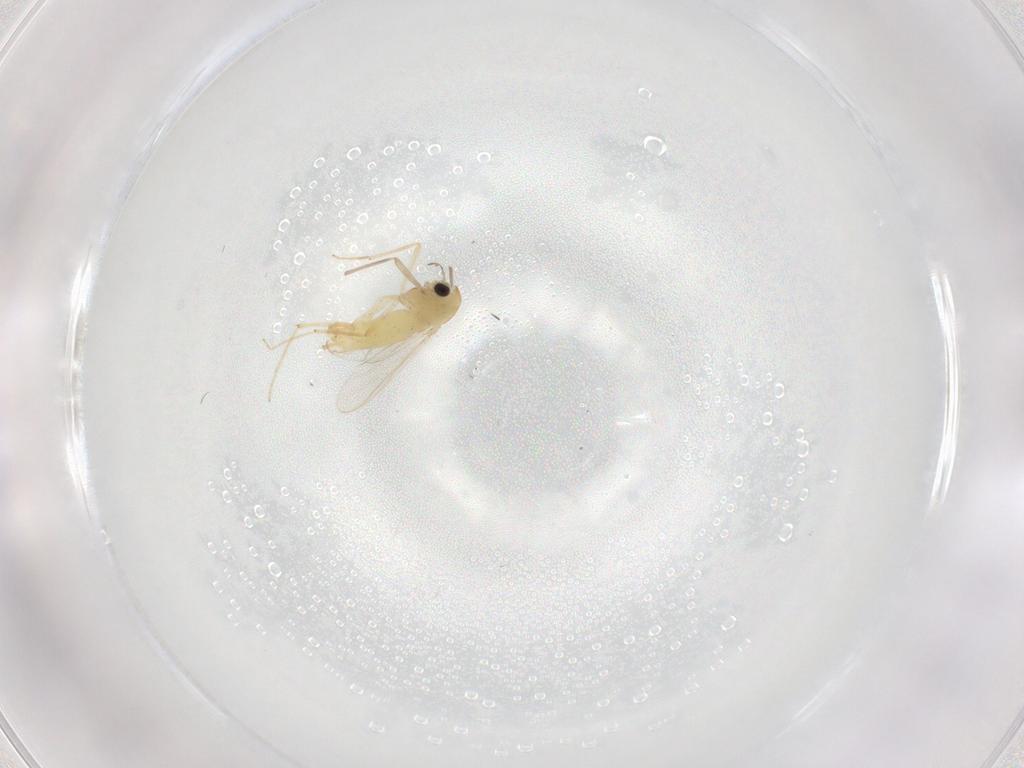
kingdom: Animalia
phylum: Arthropoda
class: Insecta
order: Diptera
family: Chironomidae
